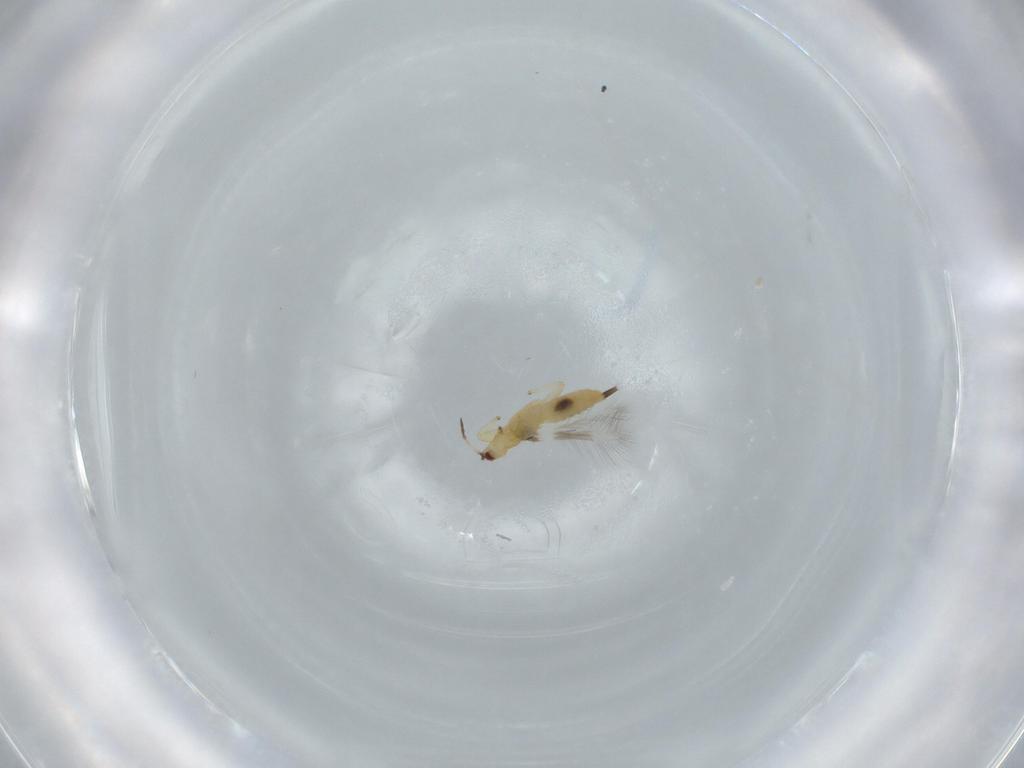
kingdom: Animalia
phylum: Arthropoda
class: Insecta
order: Thysanoptera
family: Phlaeothripidae
